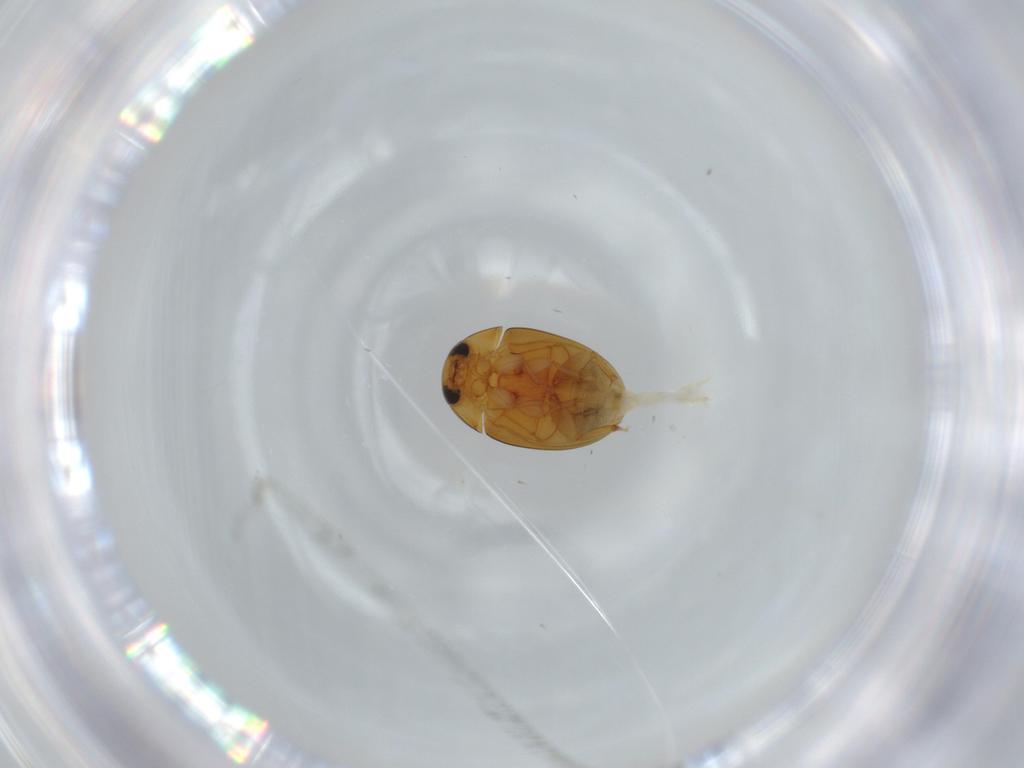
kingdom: Animalia
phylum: Arthropoda
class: Insecta
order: Coleoptera
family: Phalacridae
